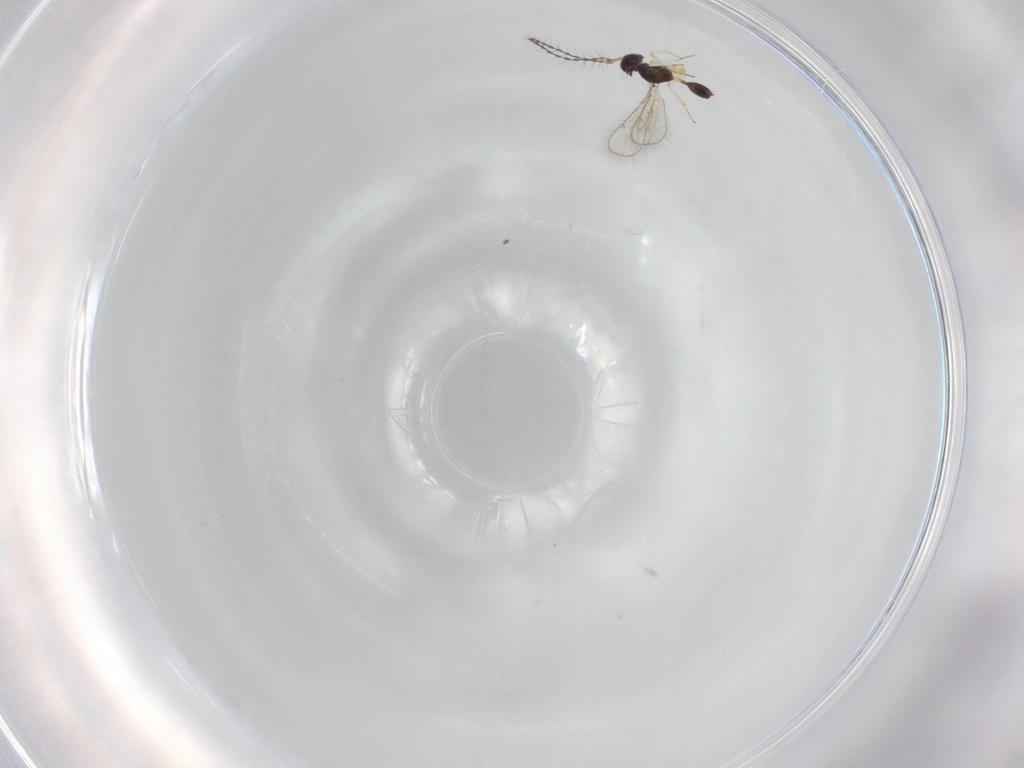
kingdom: Animalia
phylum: Arthropoda
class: Insecta
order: Hymenoptera
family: Diparidae
